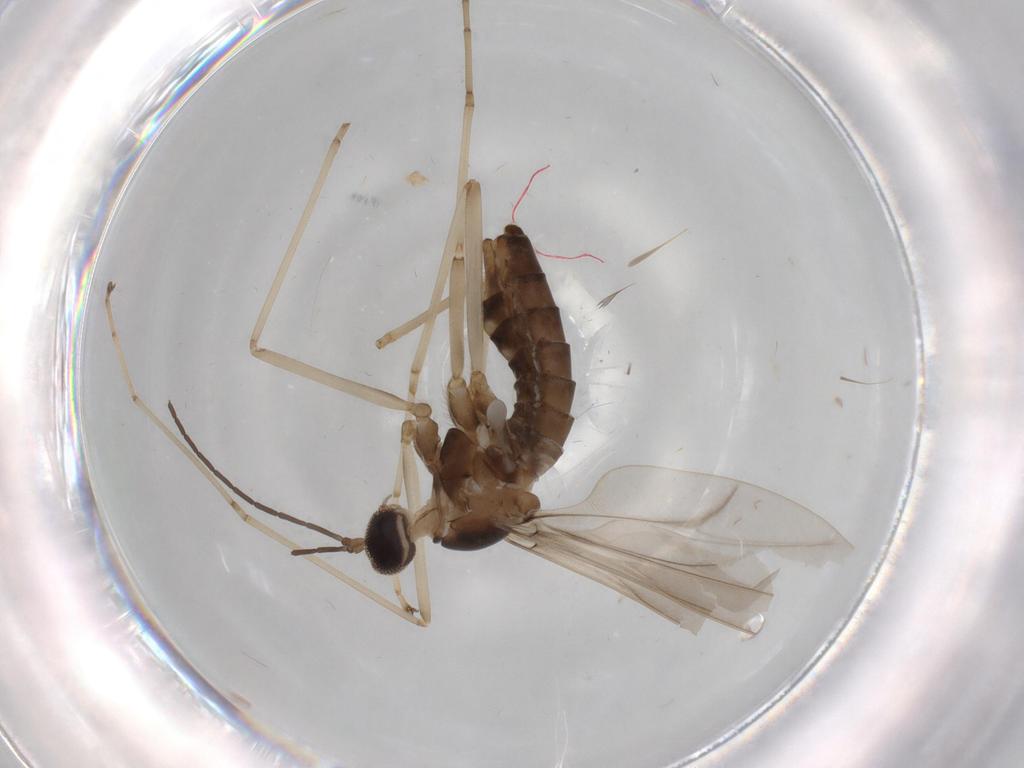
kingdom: Animalia
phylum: Arthropoda
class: Insecta
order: Diptera
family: Cecidomyiidae
